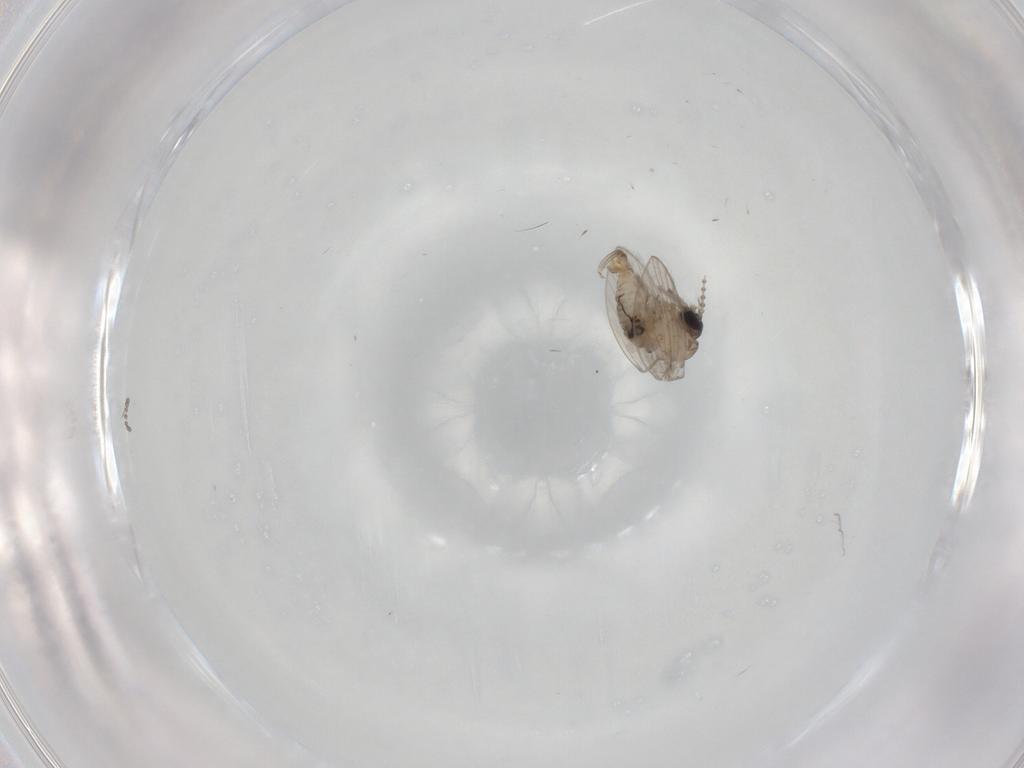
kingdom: Animalia
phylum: Arthropoda
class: Insecta
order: Diptera
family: Psychodidae
